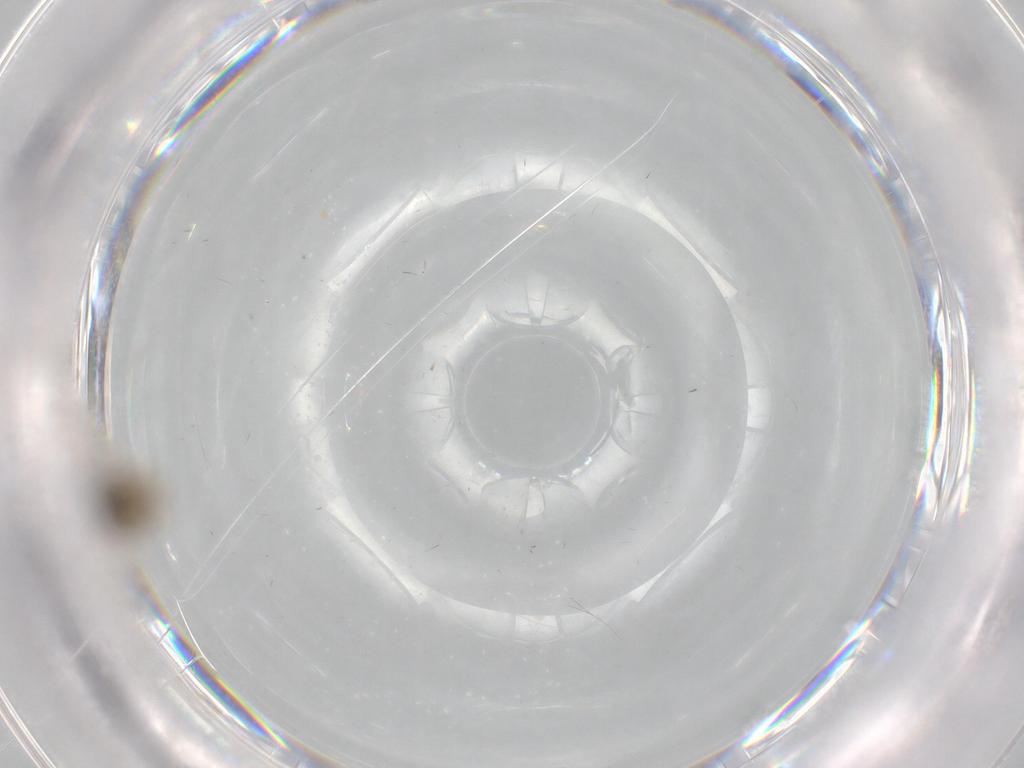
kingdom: Animalia
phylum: Arthropoda
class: Insecta
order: Diptera
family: Cecidomyiidae
